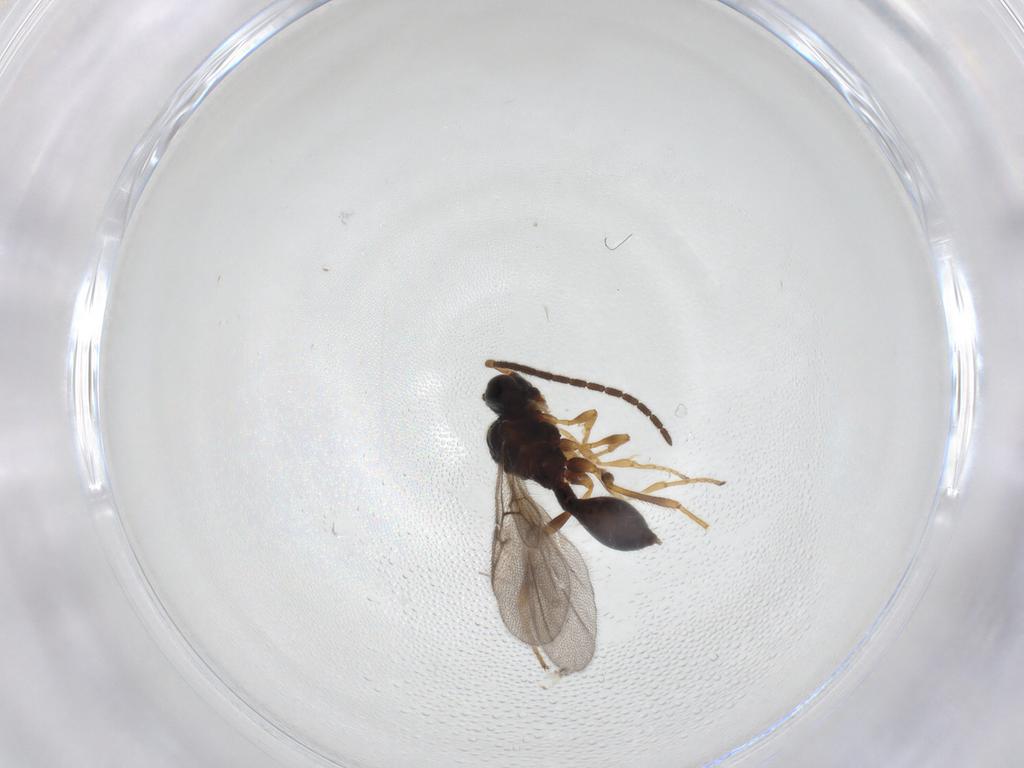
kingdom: Animalia
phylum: Arthropoda
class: Insecta
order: Hymenoptera
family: Diapriidae
